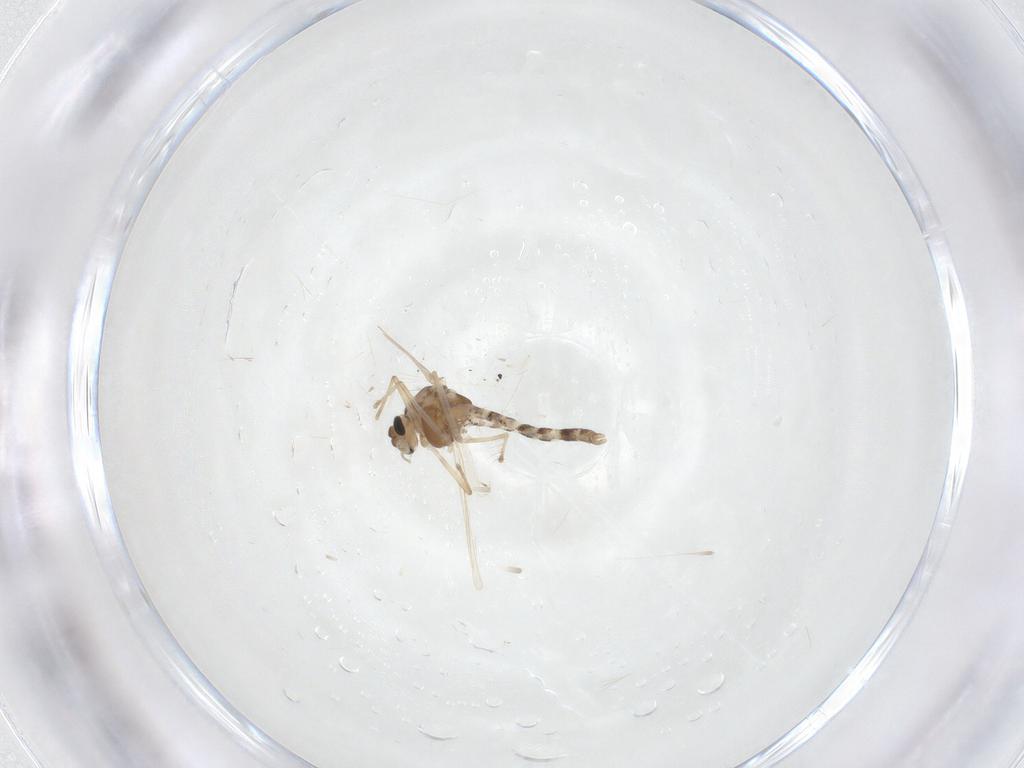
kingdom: Animalia
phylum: Arthropoda
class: Insecta
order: Diptera
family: Chironomidae
